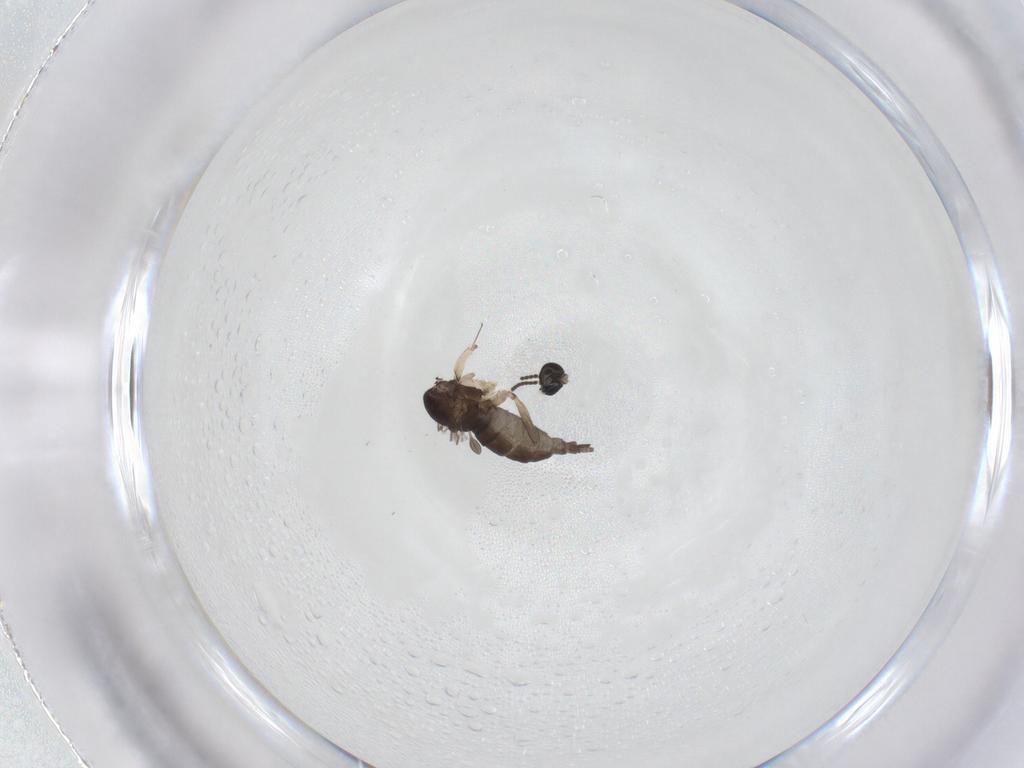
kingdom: Animalia
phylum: Arthropoda
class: Insecta
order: Diptera
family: Sciaridae
